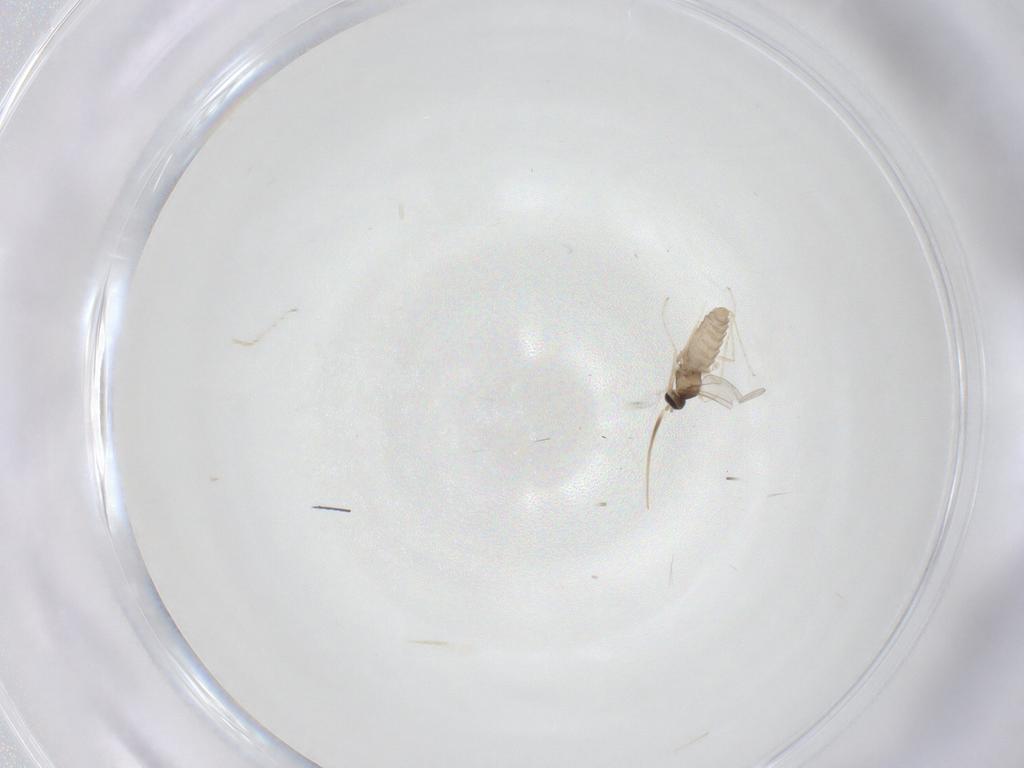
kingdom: Animalia
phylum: Arthropoda
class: Insecta
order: Diptera
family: Cecidomyiidae
